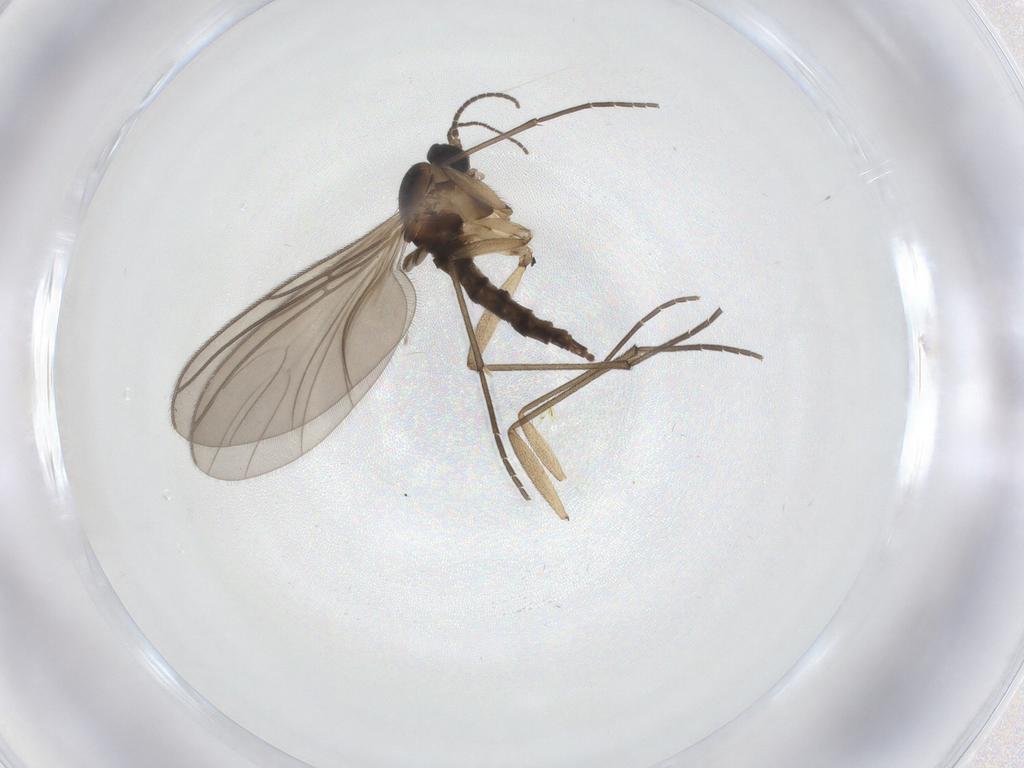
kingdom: Animalia
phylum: Arthropoda
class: Insecta
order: Diptera
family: Sciaridae
